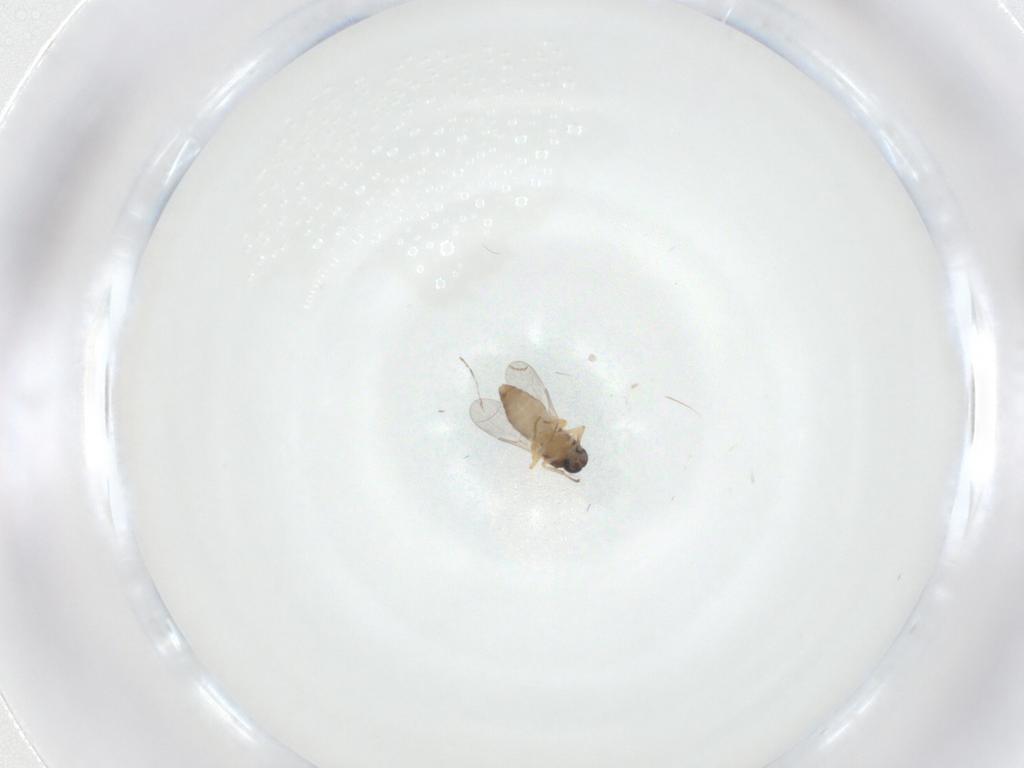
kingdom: Animalia
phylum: Arthropoda
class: Insecta
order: Diptera
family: Ceratopogonidae
